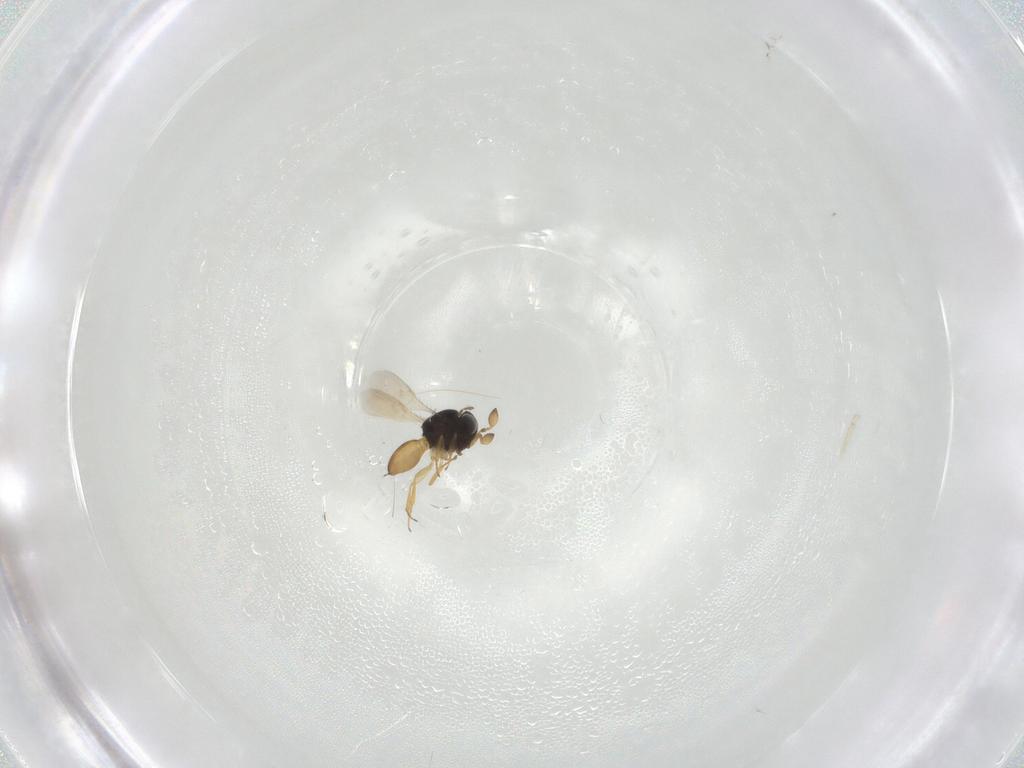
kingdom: Animalia
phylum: Arthropoda
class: Insecta
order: Hymenoptera
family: Scelionidae
